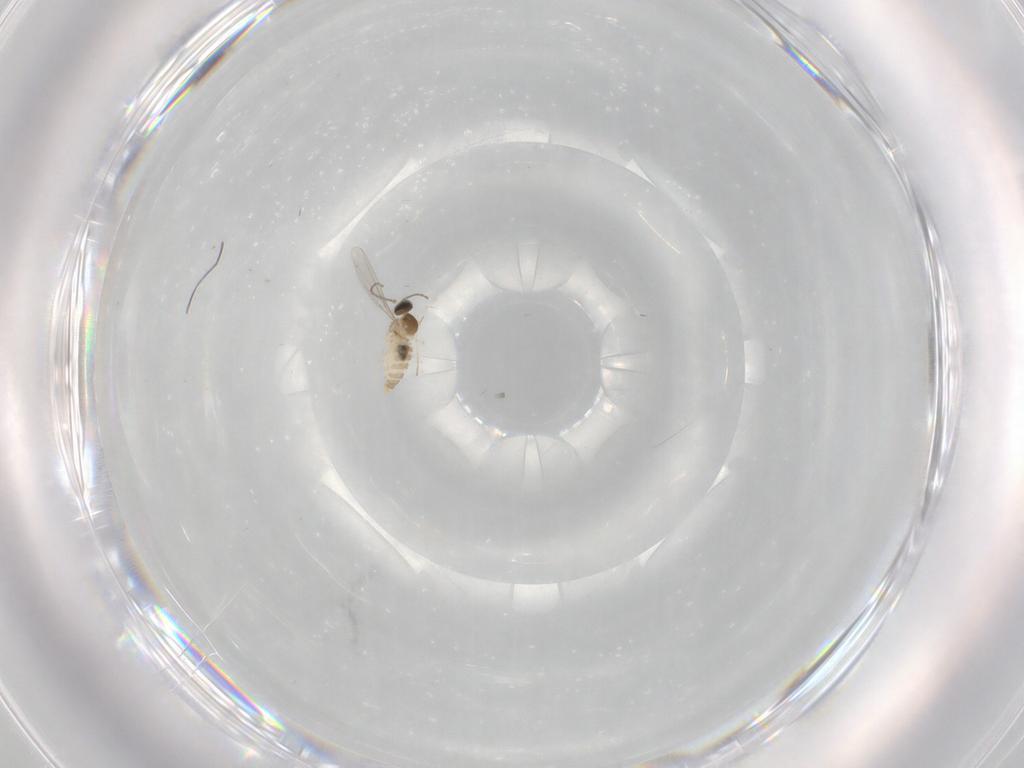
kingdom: Animalia
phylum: Arthropoda
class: Insecta
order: Diptera
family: Cecidomyiidae
